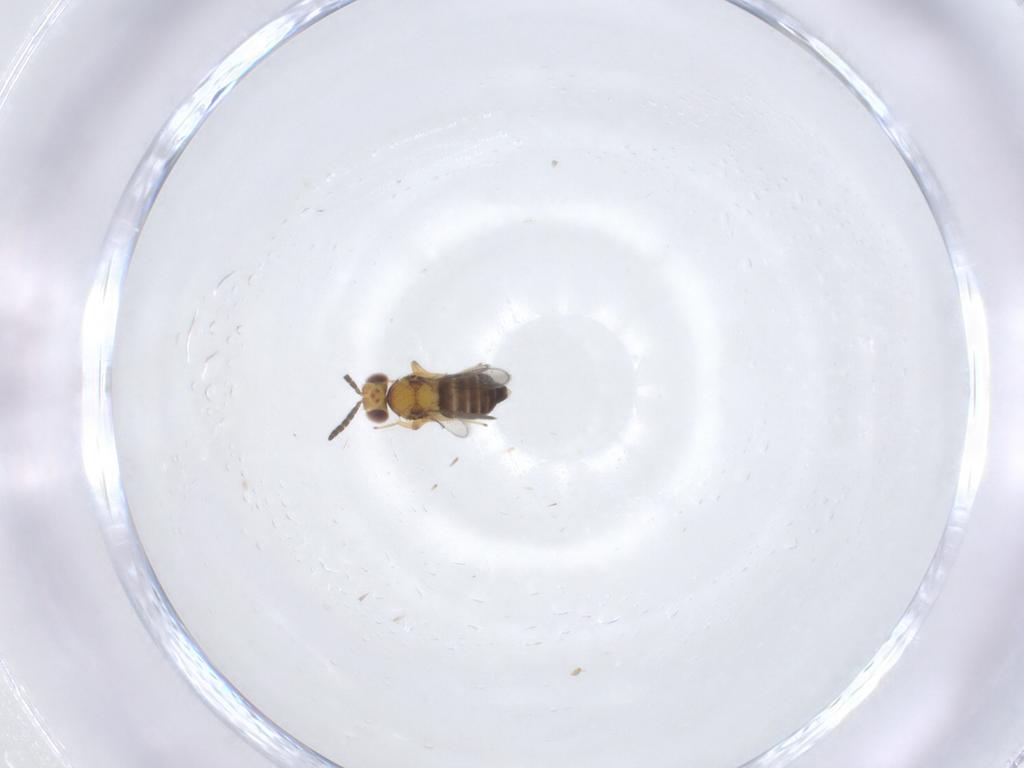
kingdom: Animalia
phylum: Arthropoda
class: Insecta
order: Hymenoptera
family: Aphelinidae
